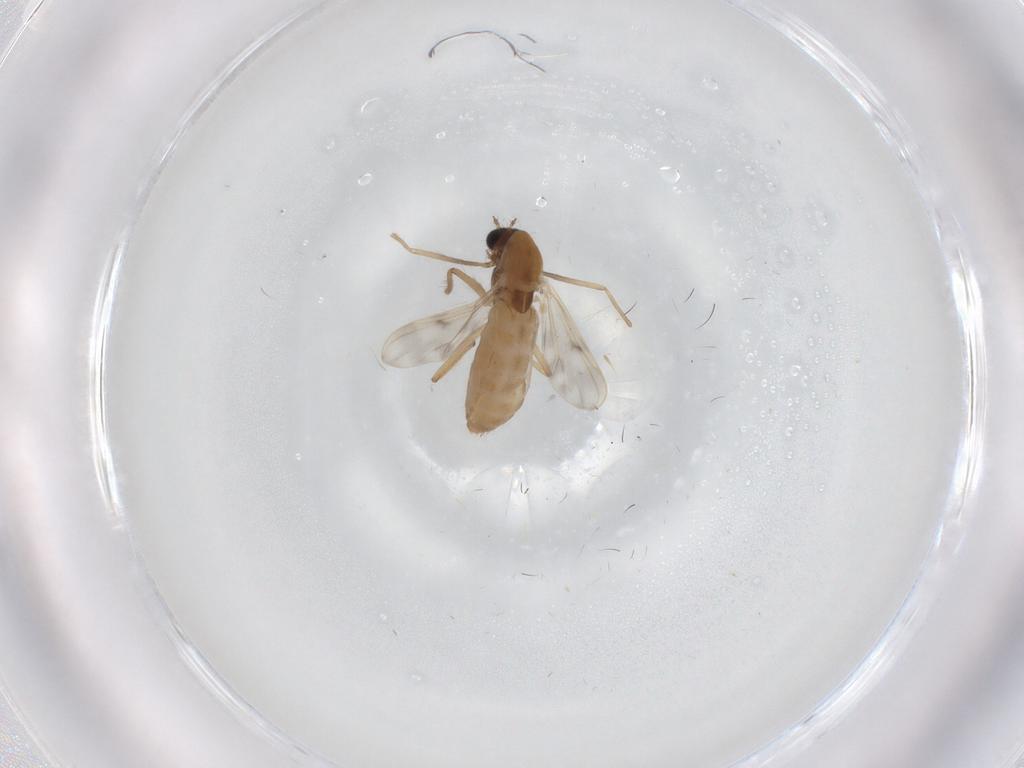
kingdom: Animalia
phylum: Arthropoda
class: Insecta
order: Diptera
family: Chironomidae
